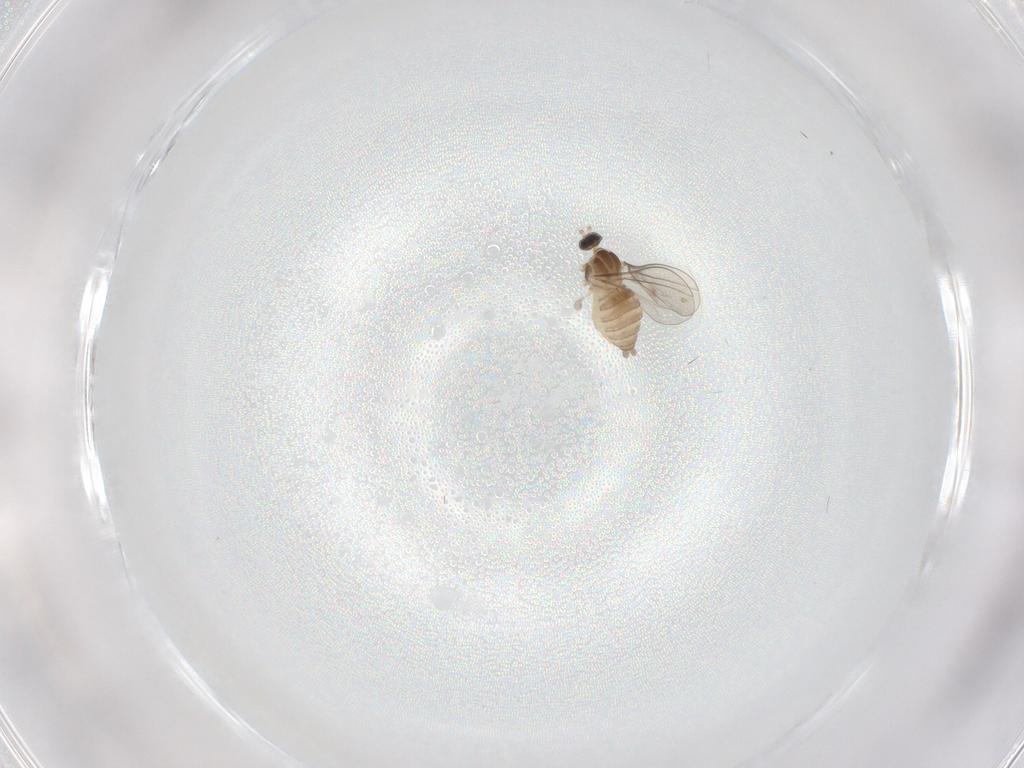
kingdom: Animalia
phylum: Arthropoda
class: Insecta
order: Diptera
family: Cecidomyiidae
